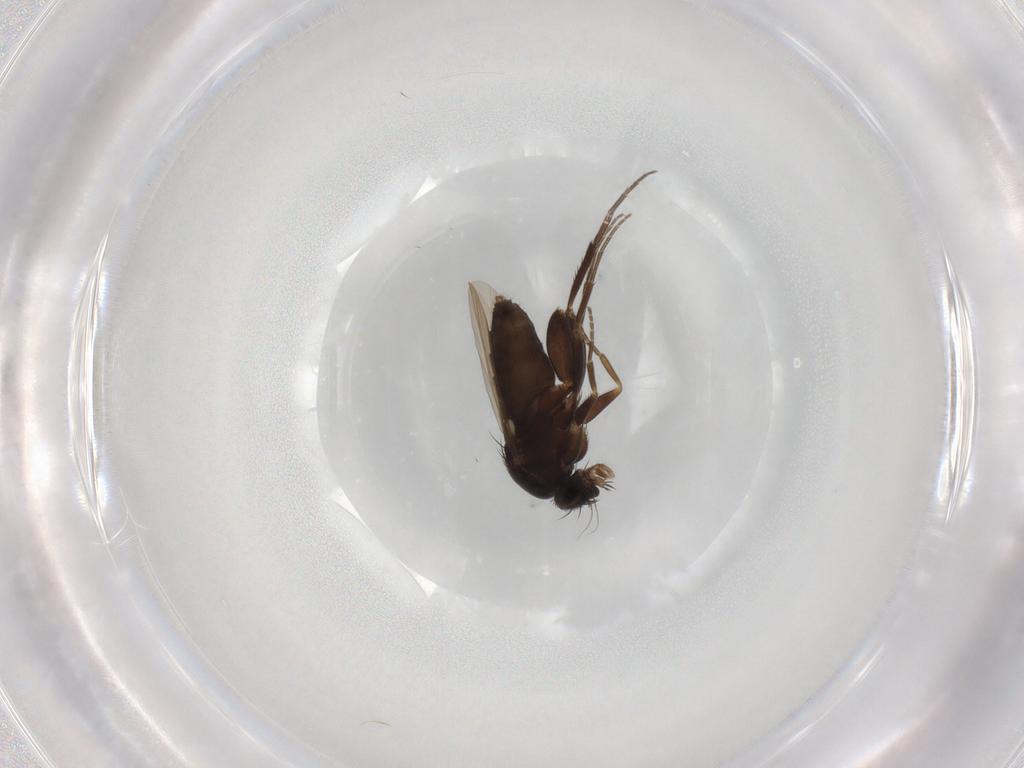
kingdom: Animalia
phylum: Arthropoda
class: Insecta
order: Diptera
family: Phoridae
